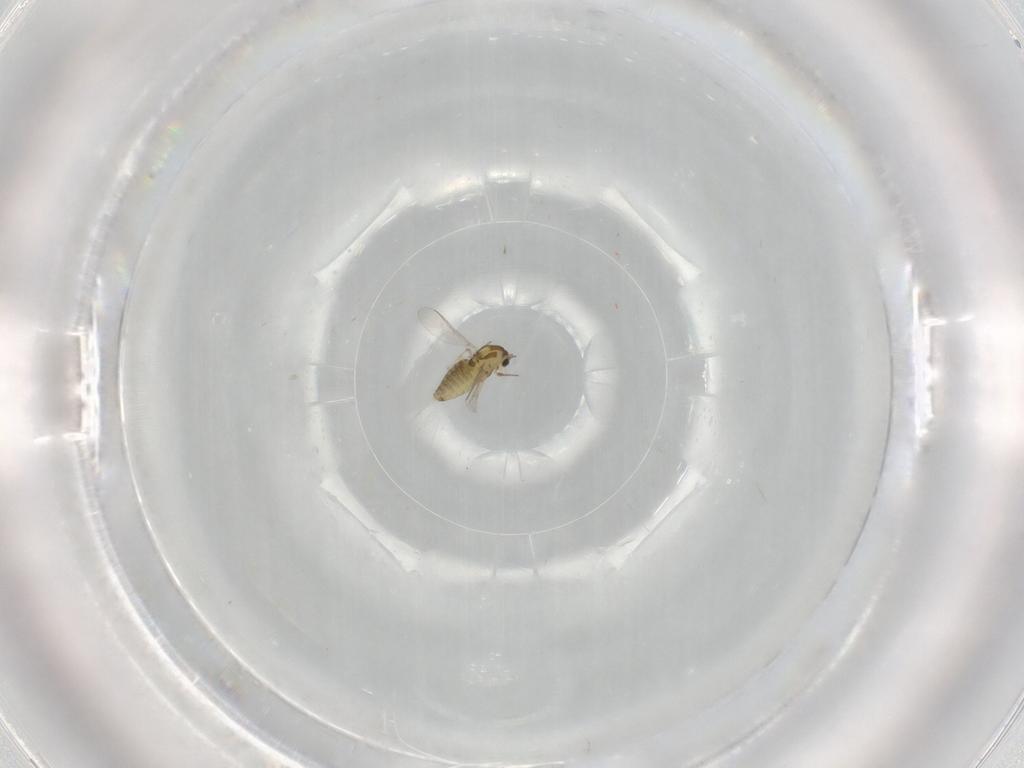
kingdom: Animalia
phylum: Arthropoda
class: Insecta
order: Diptera
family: Chironomidae
